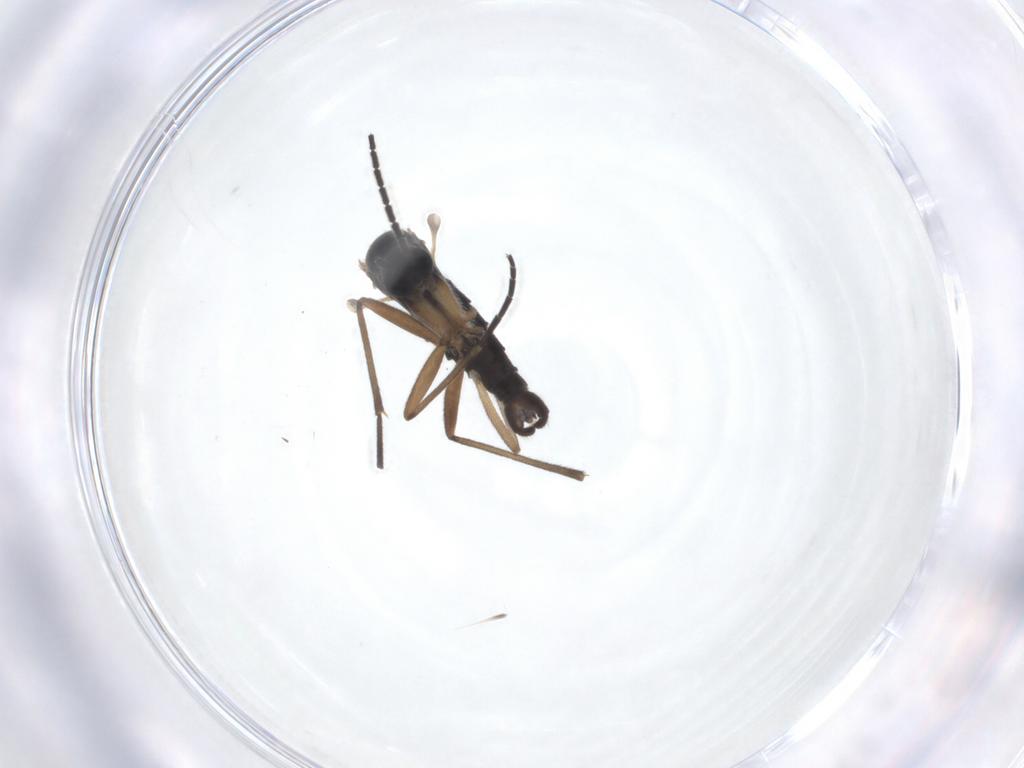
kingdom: Animalia
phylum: Arthropoda
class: Insecta
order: Diptera
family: Sciaridae
